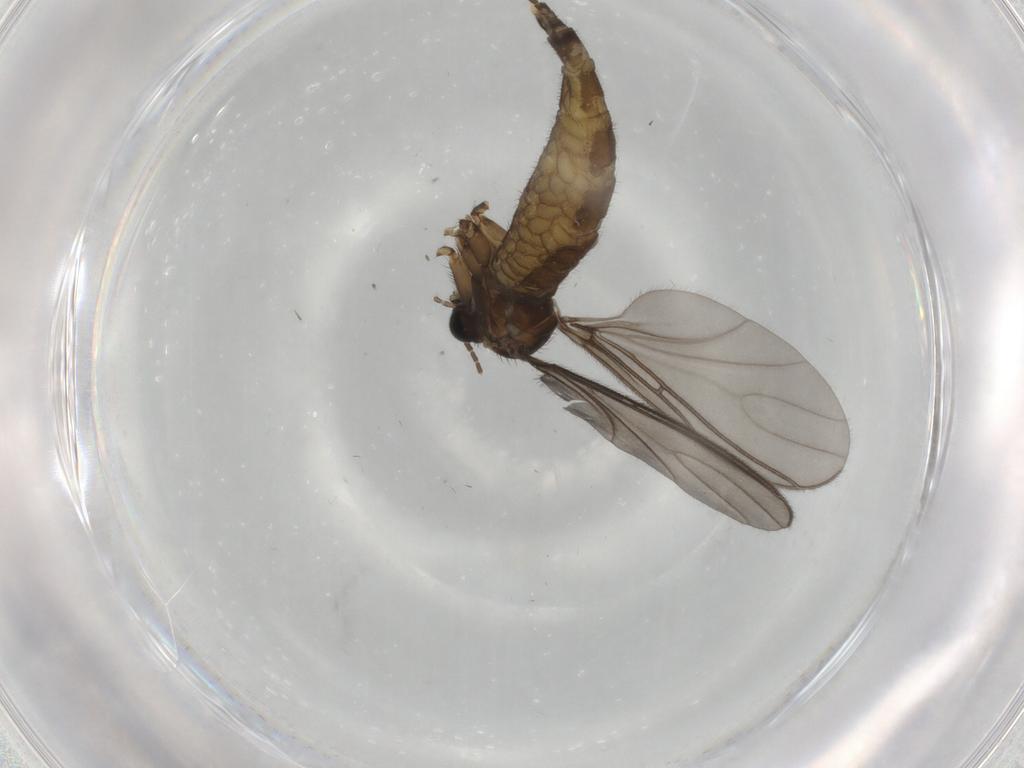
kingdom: Animalia
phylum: Arthropoda
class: Insecta
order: Diptera
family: Sciaridae
